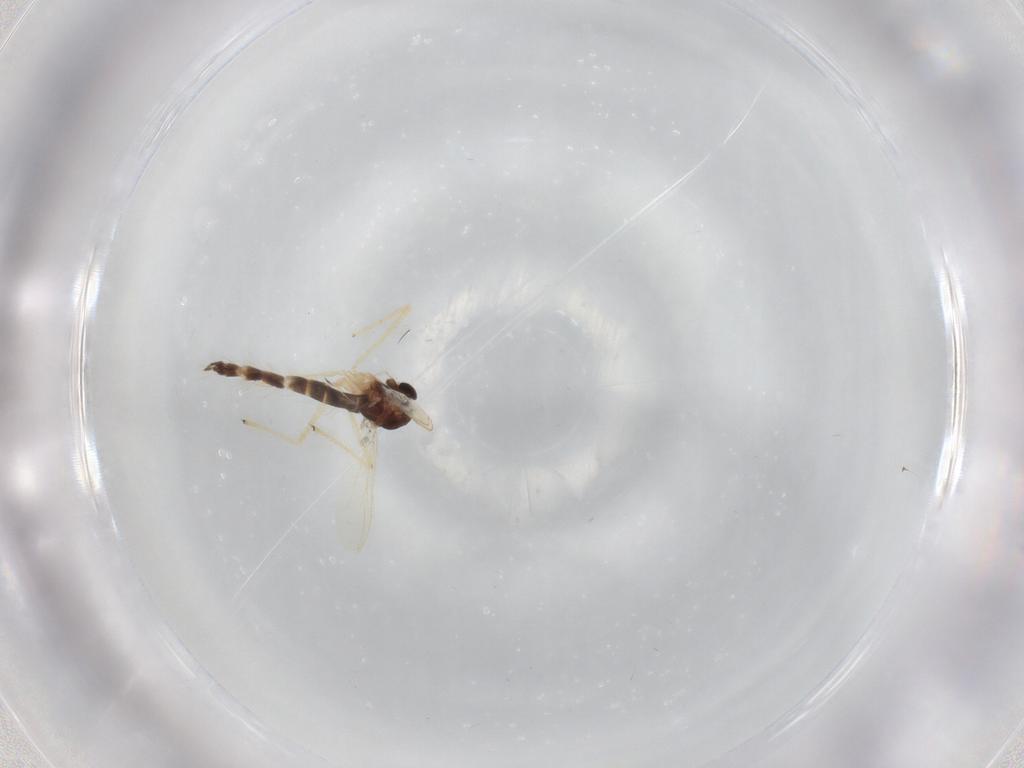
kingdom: Animalia
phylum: Arthropoda
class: Insecta
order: Diptera
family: Chironomidae
